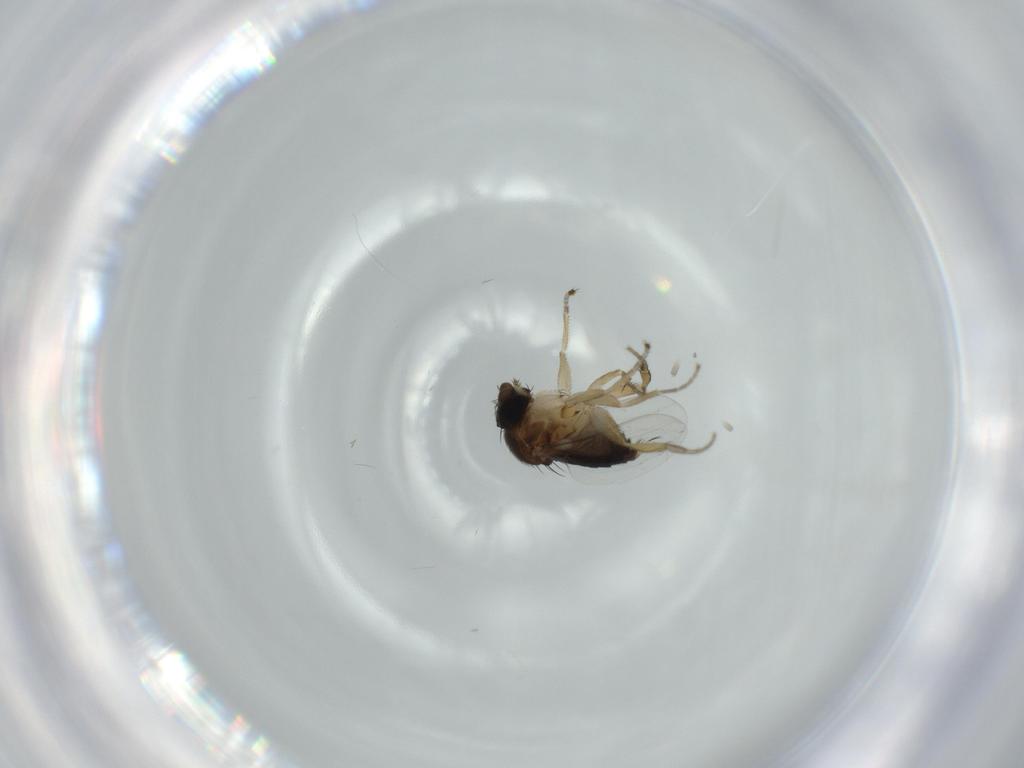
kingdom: Animalia
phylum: Arthropoda
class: Insecta
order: Diptera
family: Phoridae
